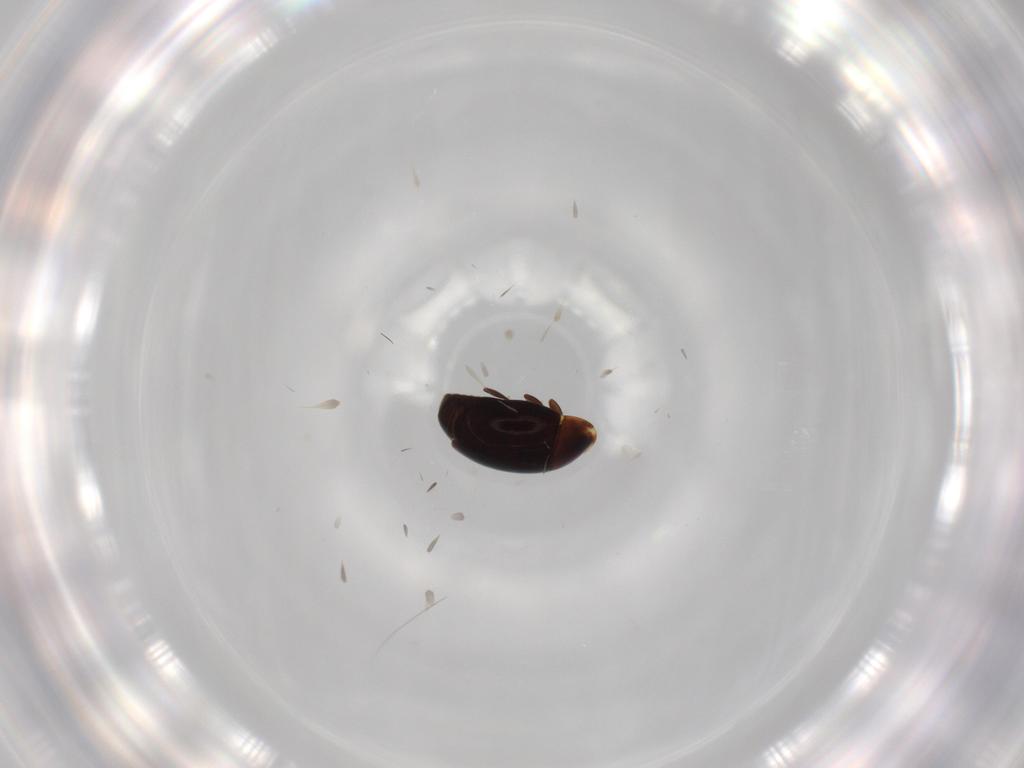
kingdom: Animalia
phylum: Arthropoda
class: Insecta
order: Coleoptera
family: Corylophidae
